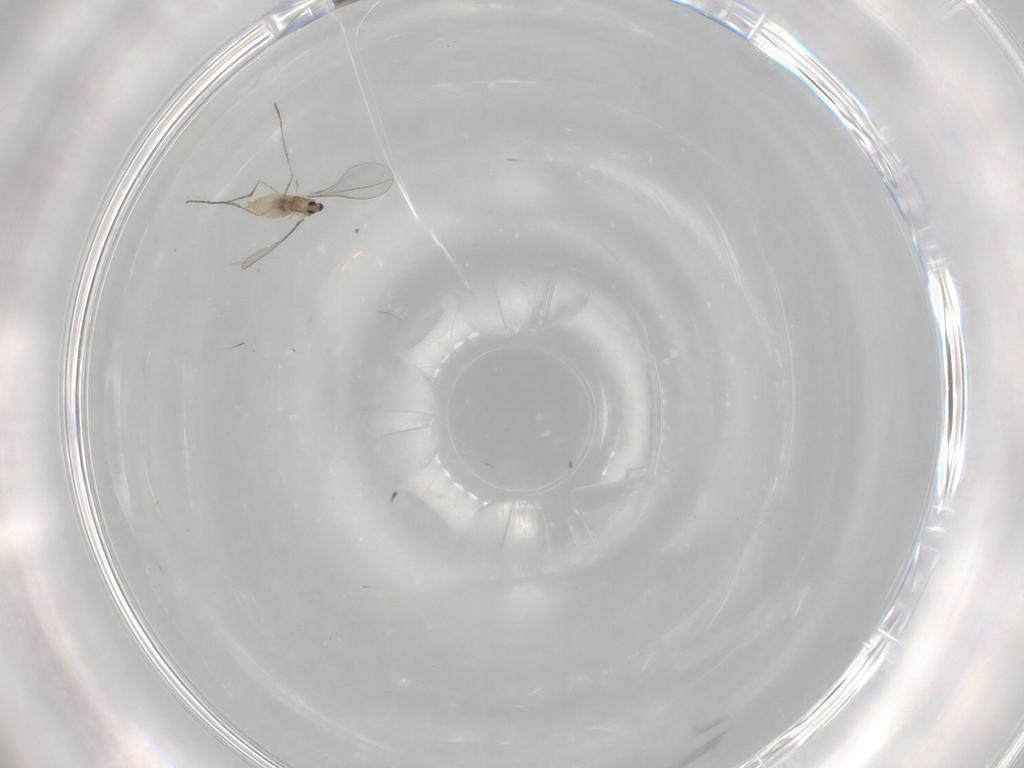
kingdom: Animalia
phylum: Arthropoda
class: Insecta
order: Diptera
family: Cecidomyiidae
